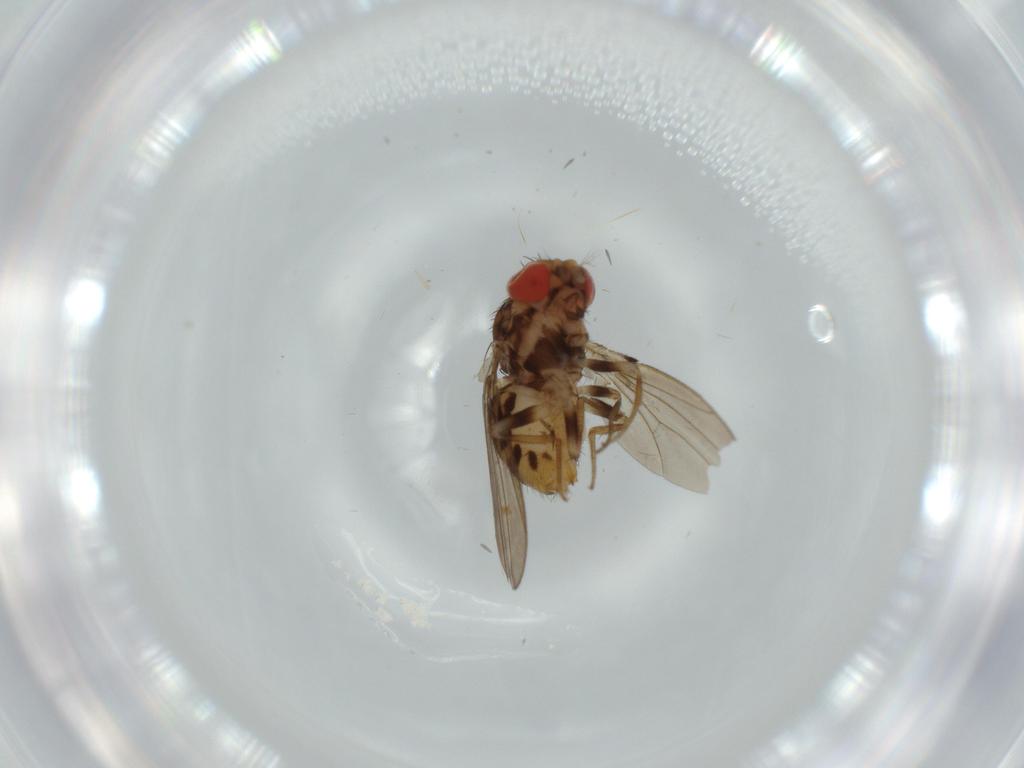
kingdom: Animalia
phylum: Arthropoda
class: Insecta
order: Diptera
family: Drosophilidae
